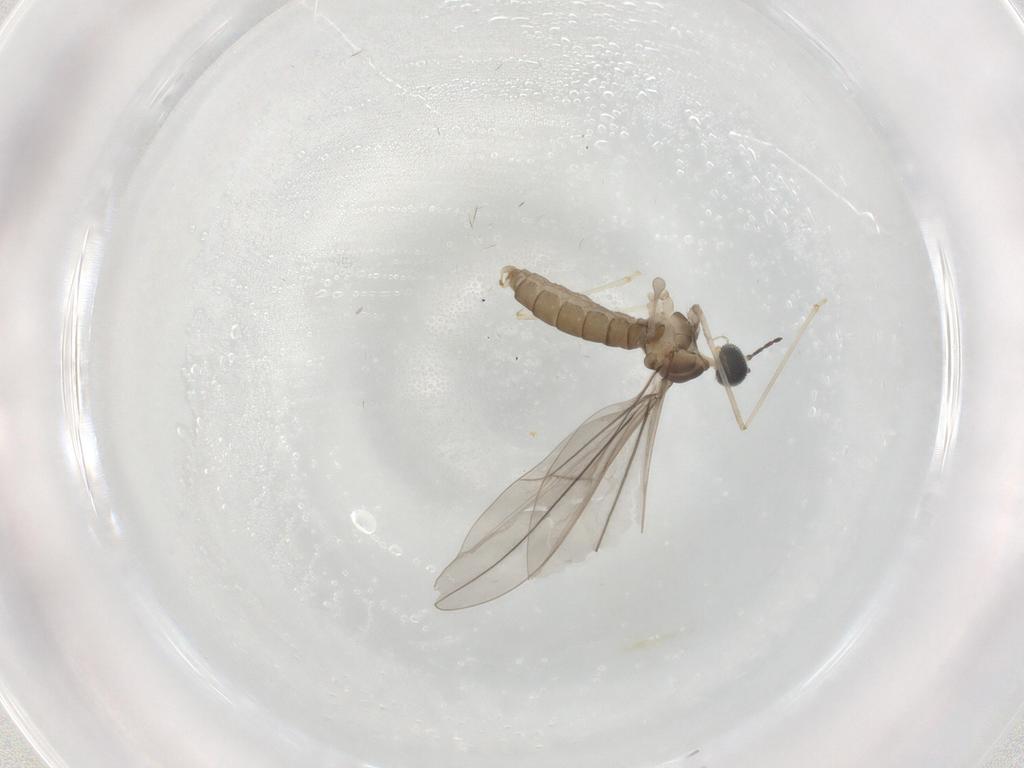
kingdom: Animalia
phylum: Arthropoda
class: Insecta
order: Diptera
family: Cecidomyiidae
